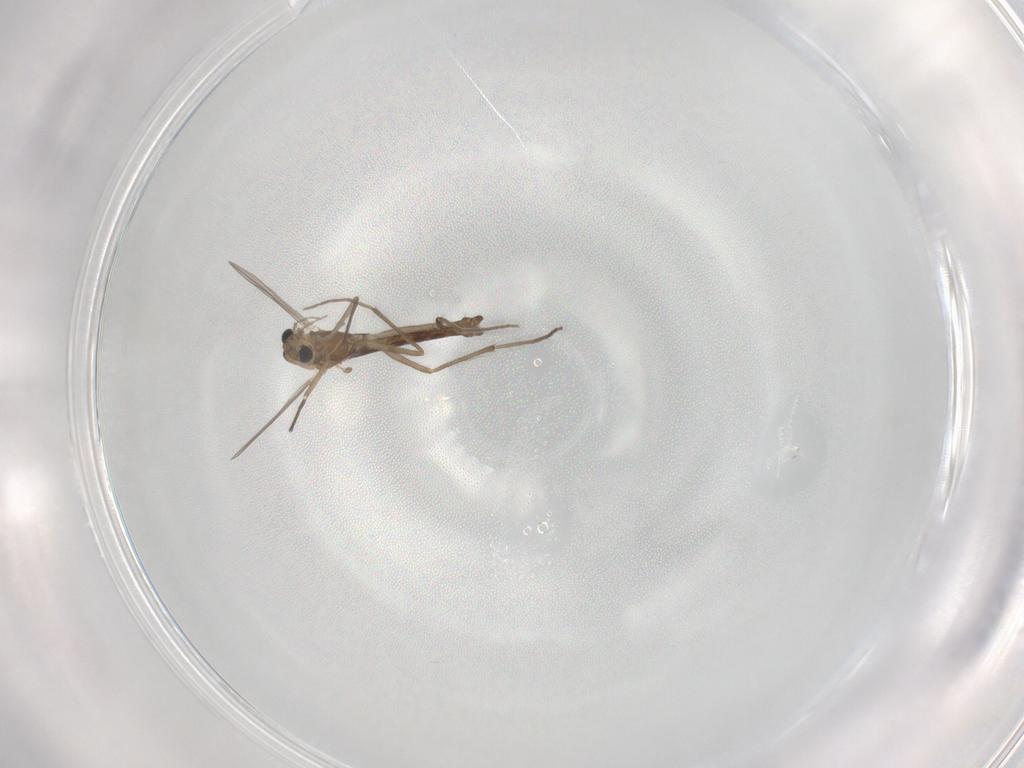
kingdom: Animalia
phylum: Arthropoda
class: Insecta
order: Diptera
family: Chironomidae
